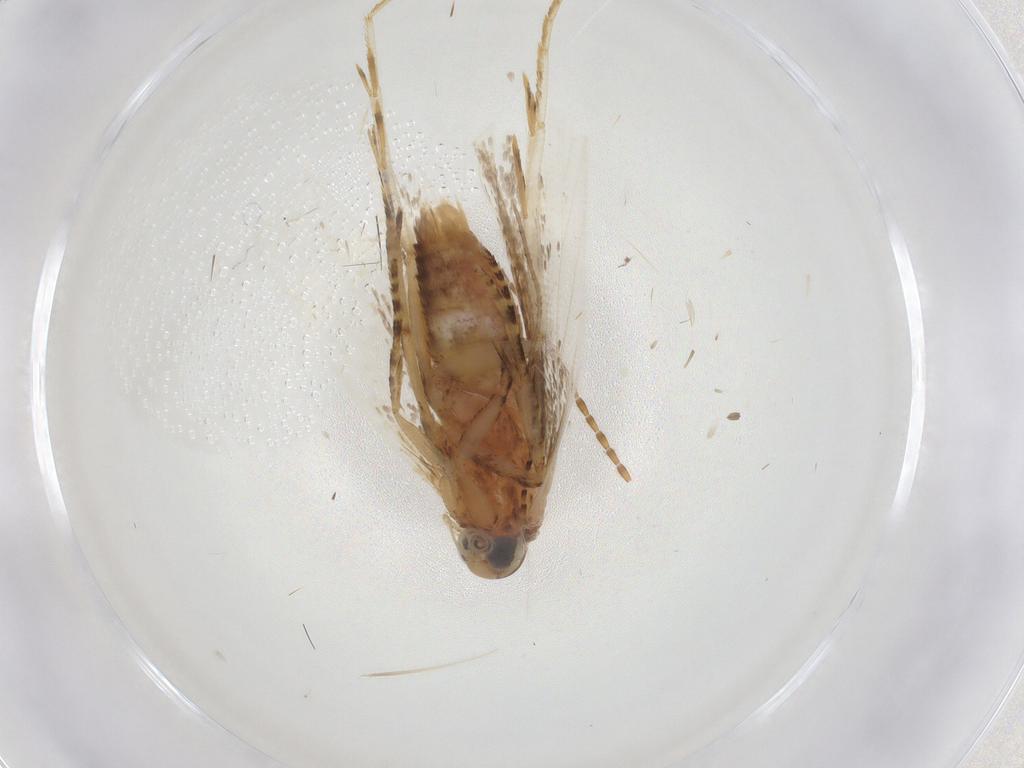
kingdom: Animalia
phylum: Arthropoda
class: Insecta
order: Lepidoptera
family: Gelechiidae
